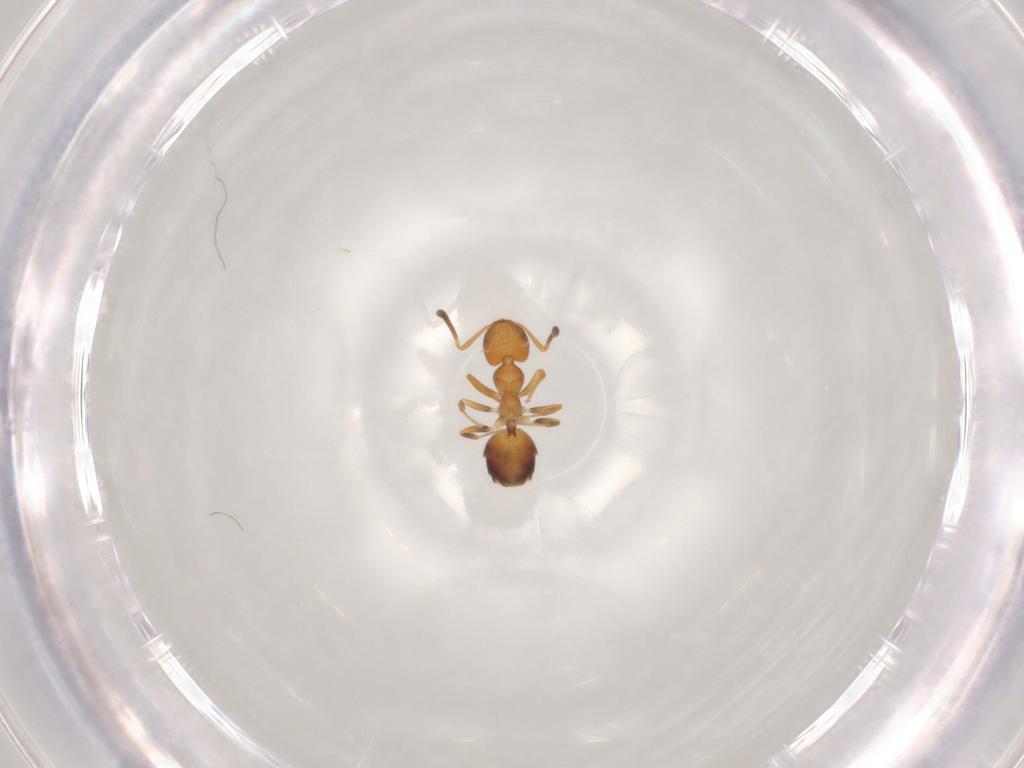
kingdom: Animalia
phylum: Arthropoda
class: Insecta
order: Hymenoptera
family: Formicidae
